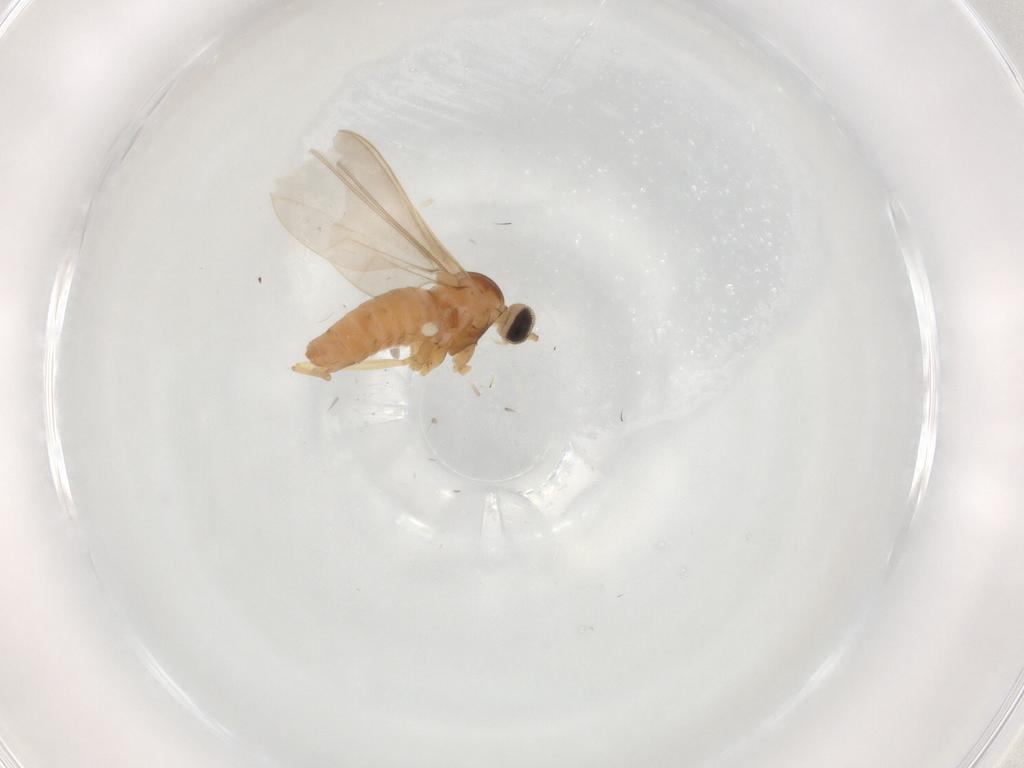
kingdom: Animalia
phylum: Arthropoda
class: Insecta
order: Diptera
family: Cecidomyiidae
